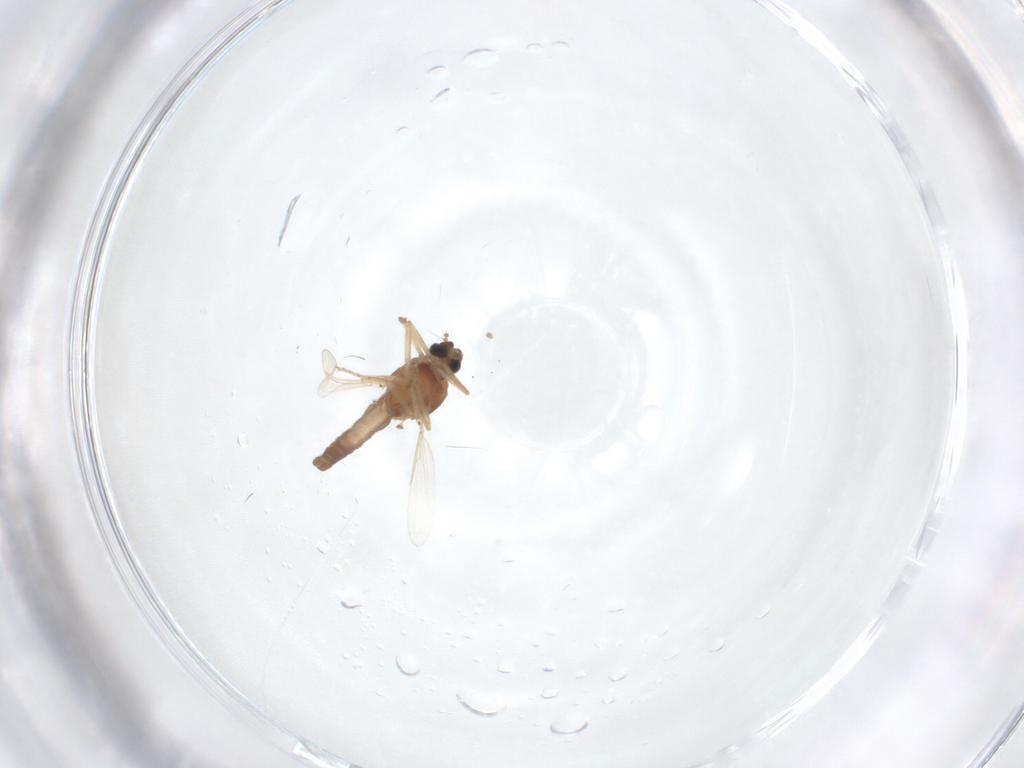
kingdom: Animalia
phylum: Arthropoda
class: Insecta
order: Diptera
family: Ceratopogonidae
